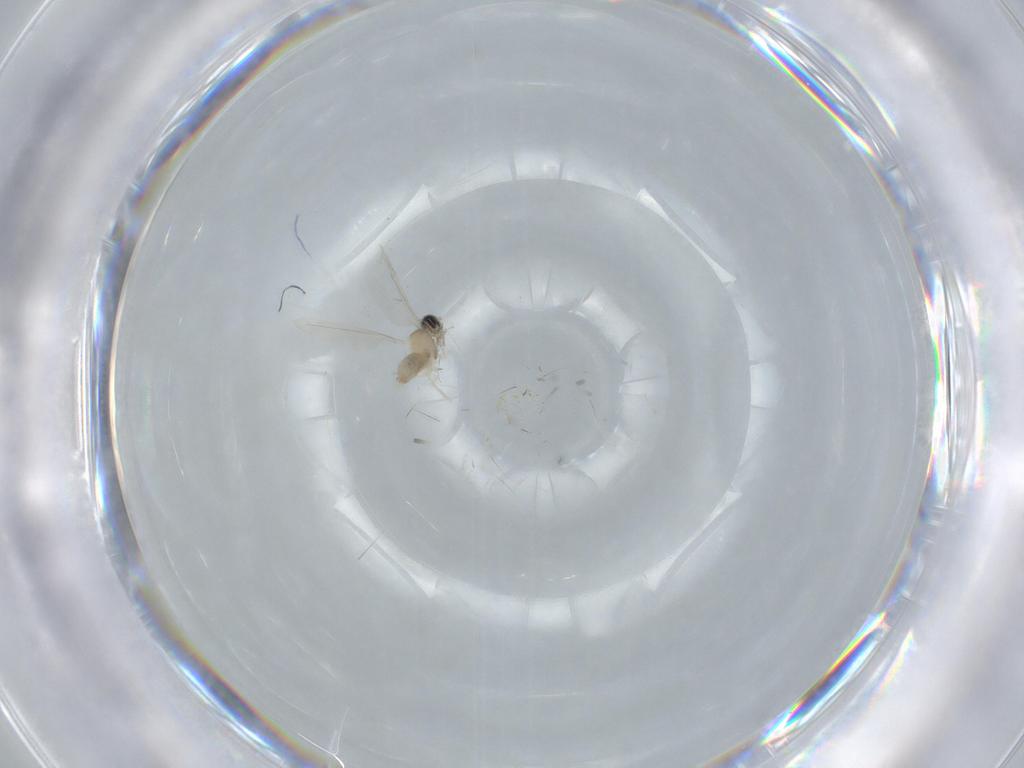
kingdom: Animalia
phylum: Arthropoda
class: Insecta
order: Diptera
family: Cecidomyiidae
